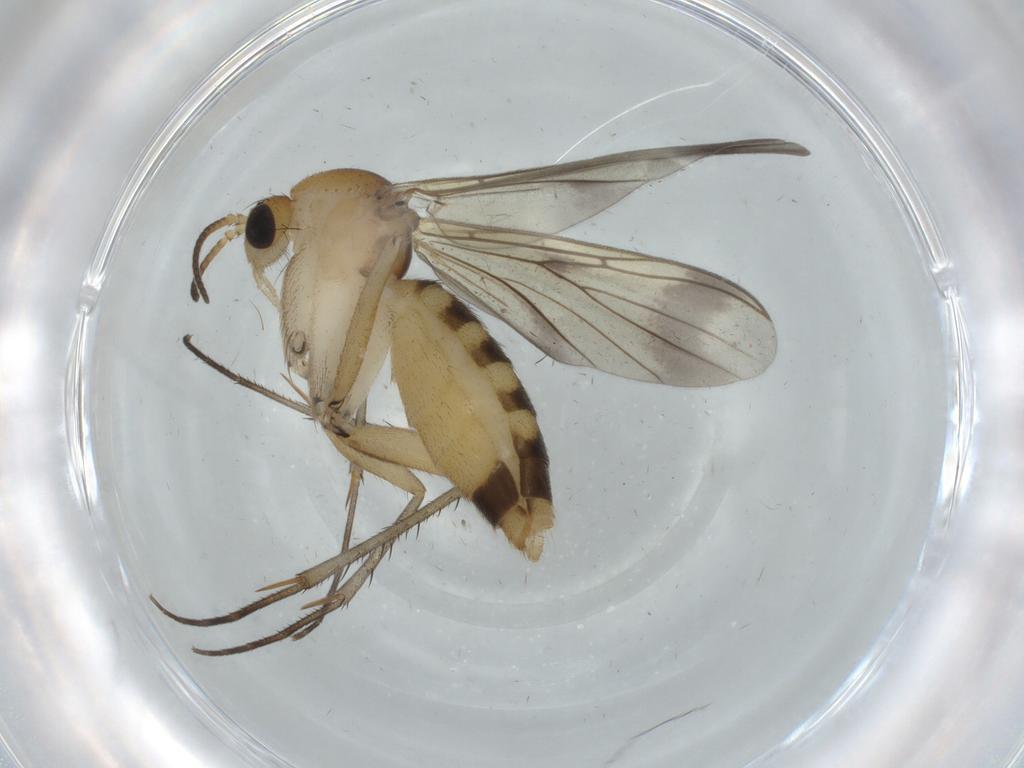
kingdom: Animalia
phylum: Arthropoda
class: Insecta
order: Diptera
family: Mycetophilidae
